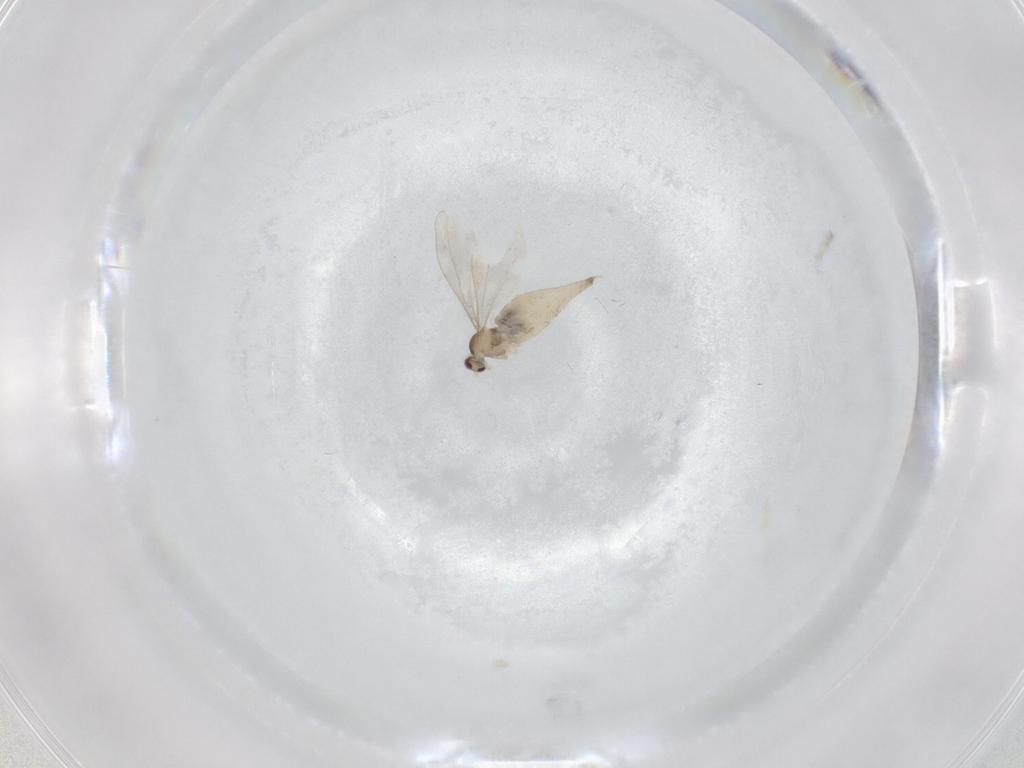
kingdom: Animalia
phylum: Arthropoda
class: Insecta
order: Diptera
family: Cecidomyiidae
